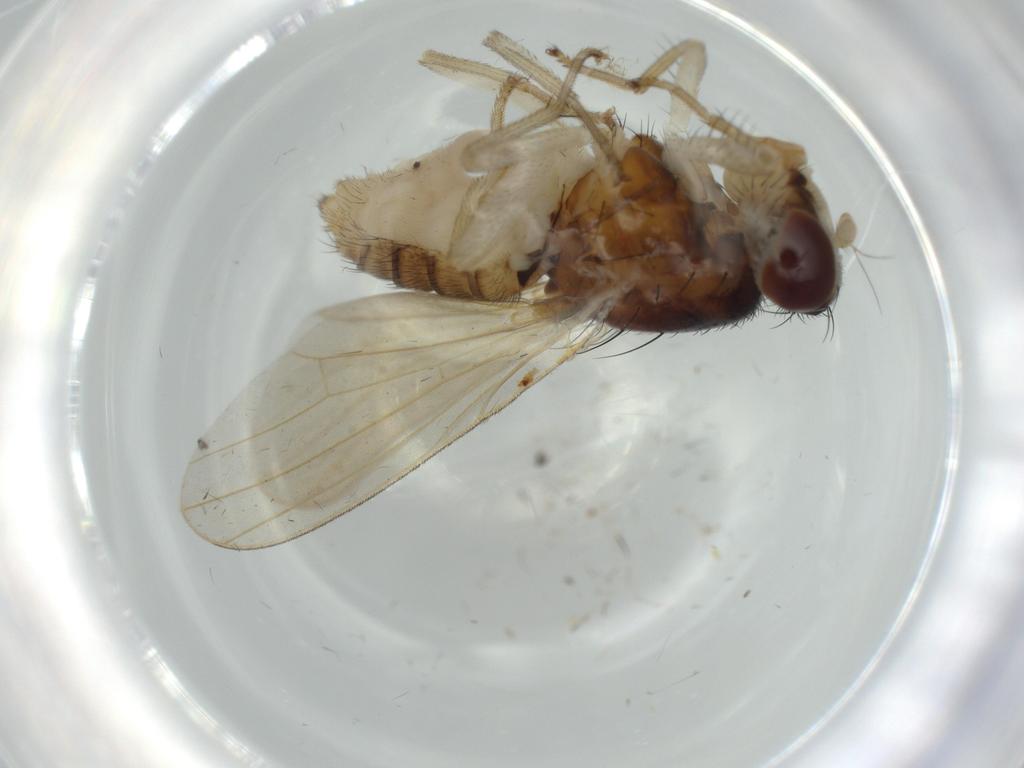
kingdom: Animalia
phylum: Arthropoda
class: Insecta
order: Diptera
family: Lauxaniidae
